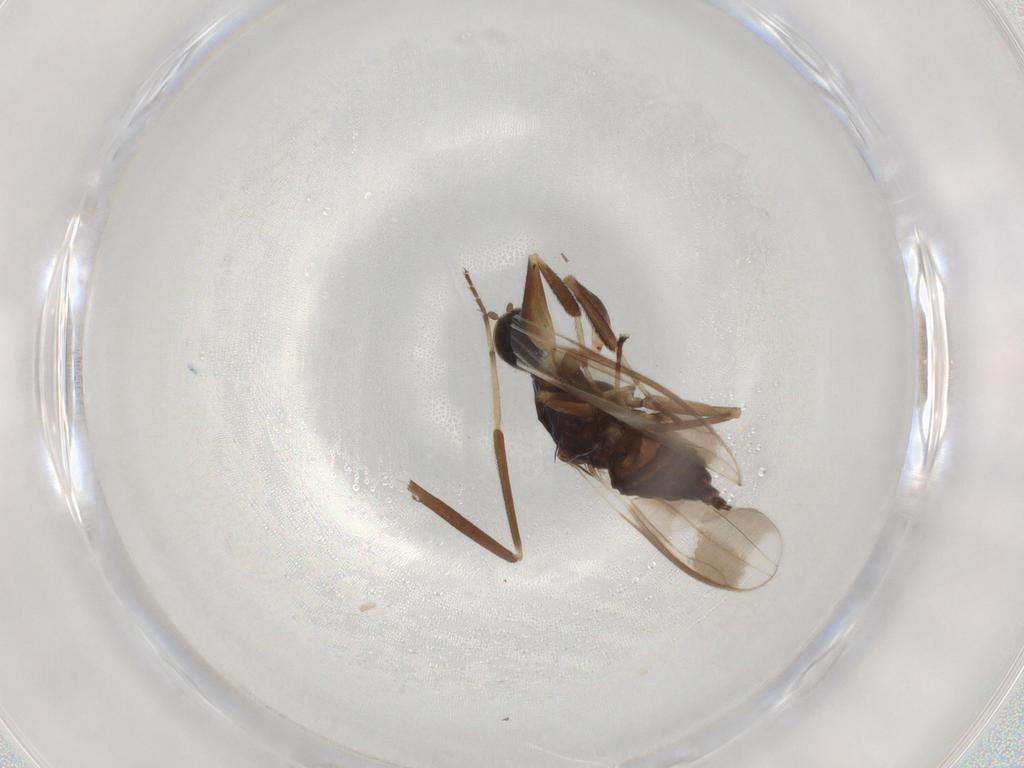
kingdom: Animalia
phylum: Arthropoda
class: Insecta
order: Diptera
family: Hybotidae
